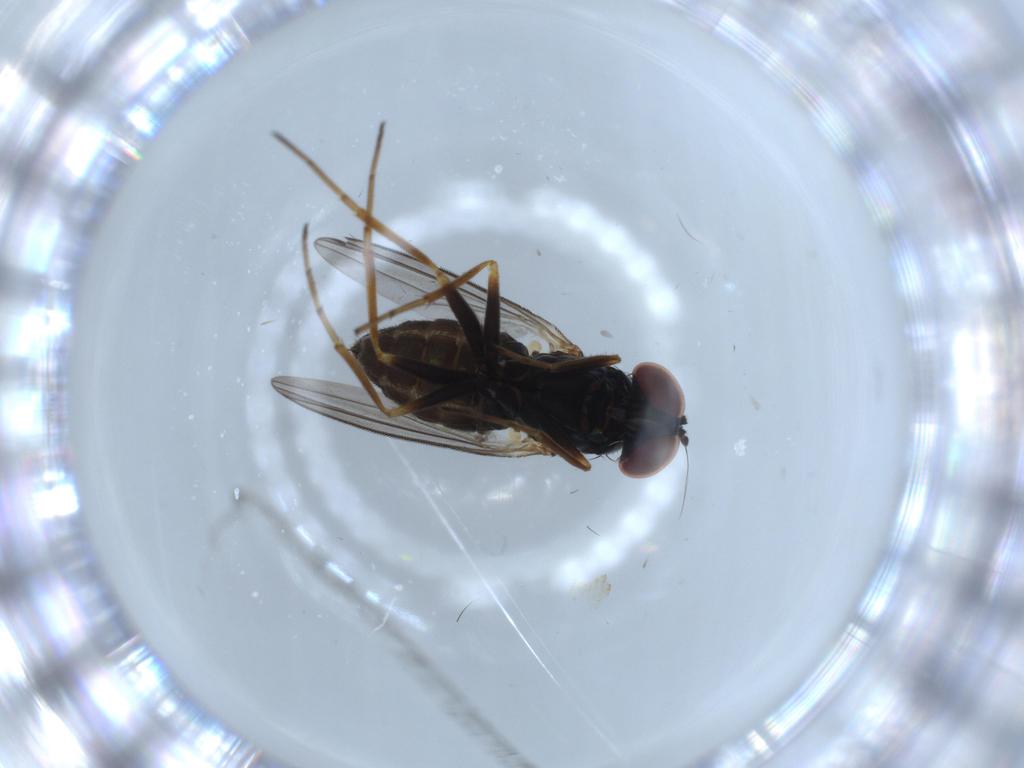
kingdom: Animalia
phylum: Arthropoda
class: Insecta
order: Diptera
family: Dolichopodidae
